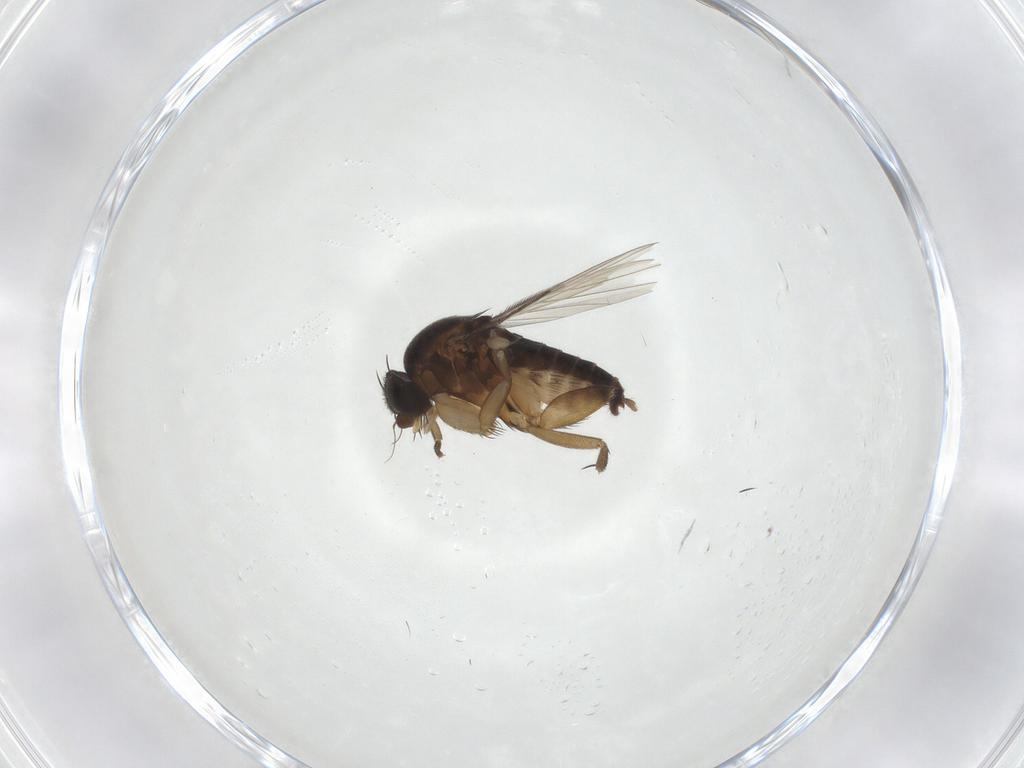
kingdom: Animalia
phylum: Arthropoda
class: Insecta
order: Diptera
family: Phoridae
